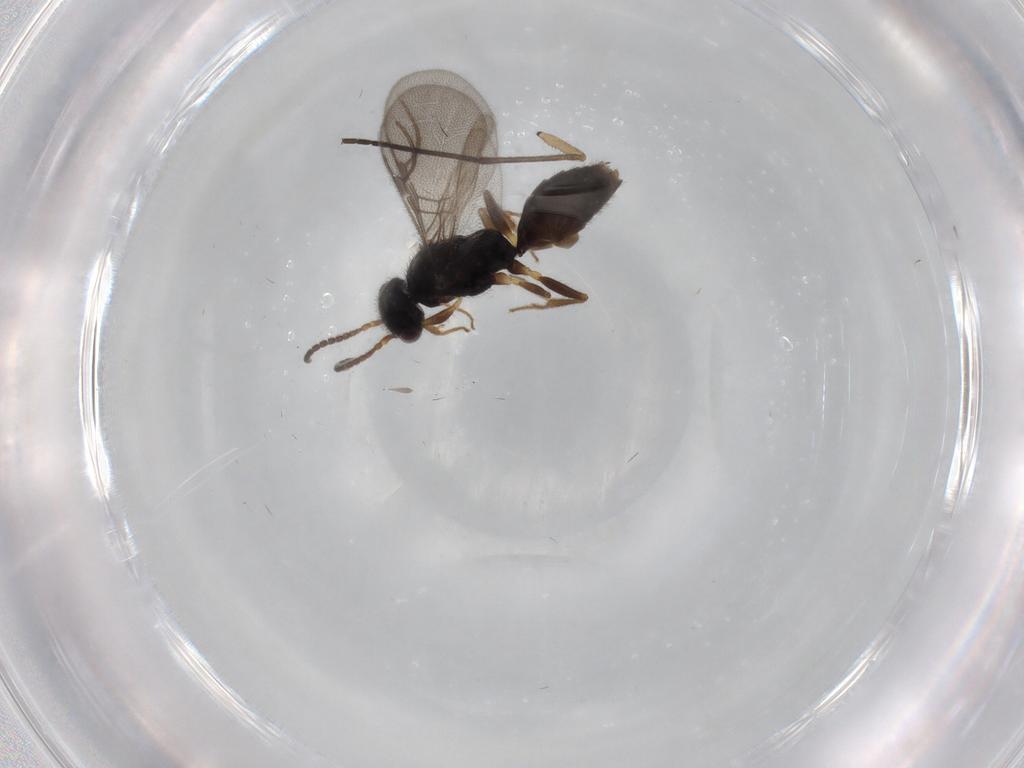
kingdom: Animalia
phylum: Arthropoda
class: Insecta
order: Hymenoptera
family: Bethylidae
